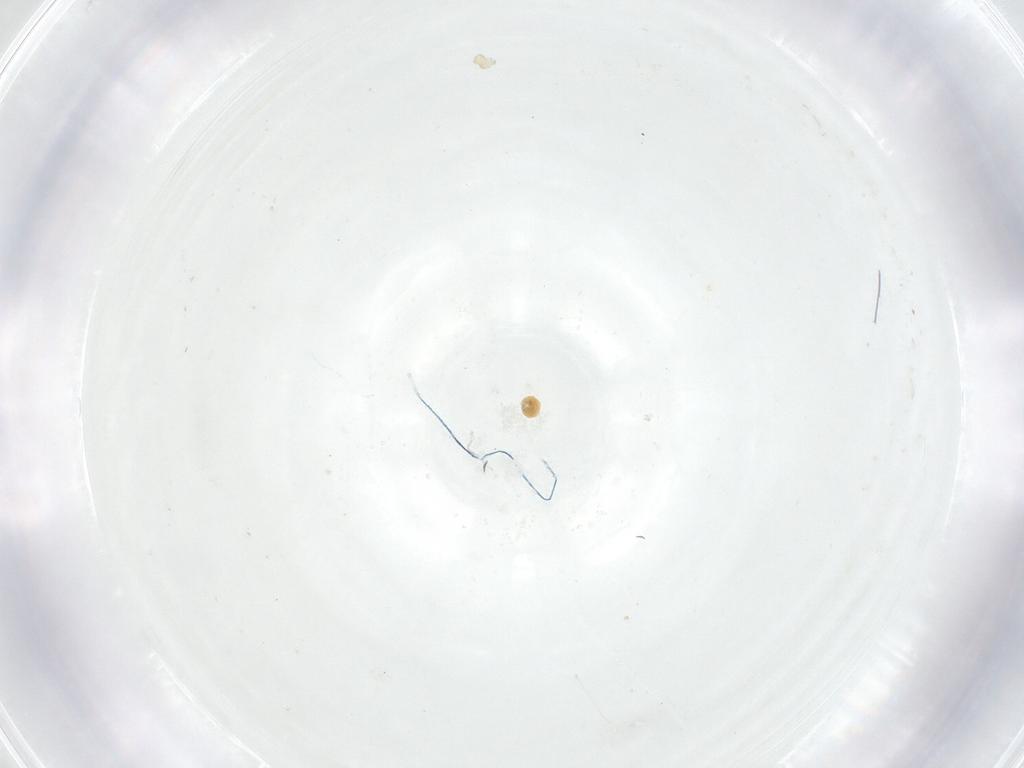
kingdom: Animalia
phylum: Arthropoda
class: Insecta
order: Diptera
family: Fergusoninidae
